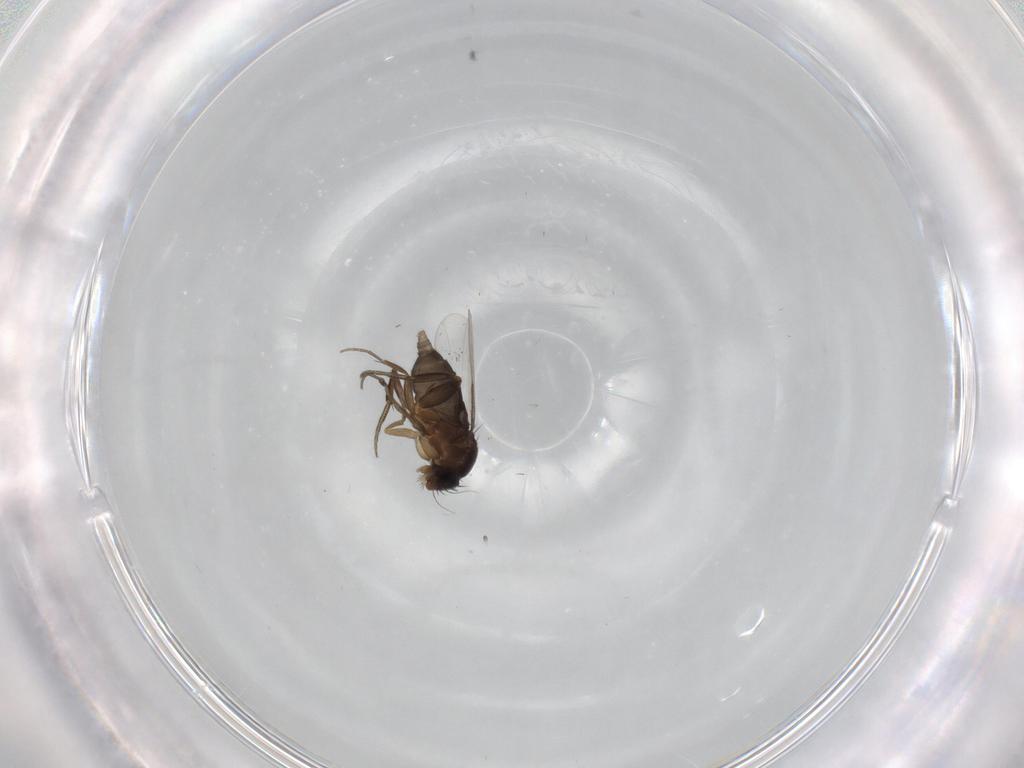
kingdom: Animalia
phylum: Arthropoda
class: Insecta
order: Diptera
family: Phoridae
